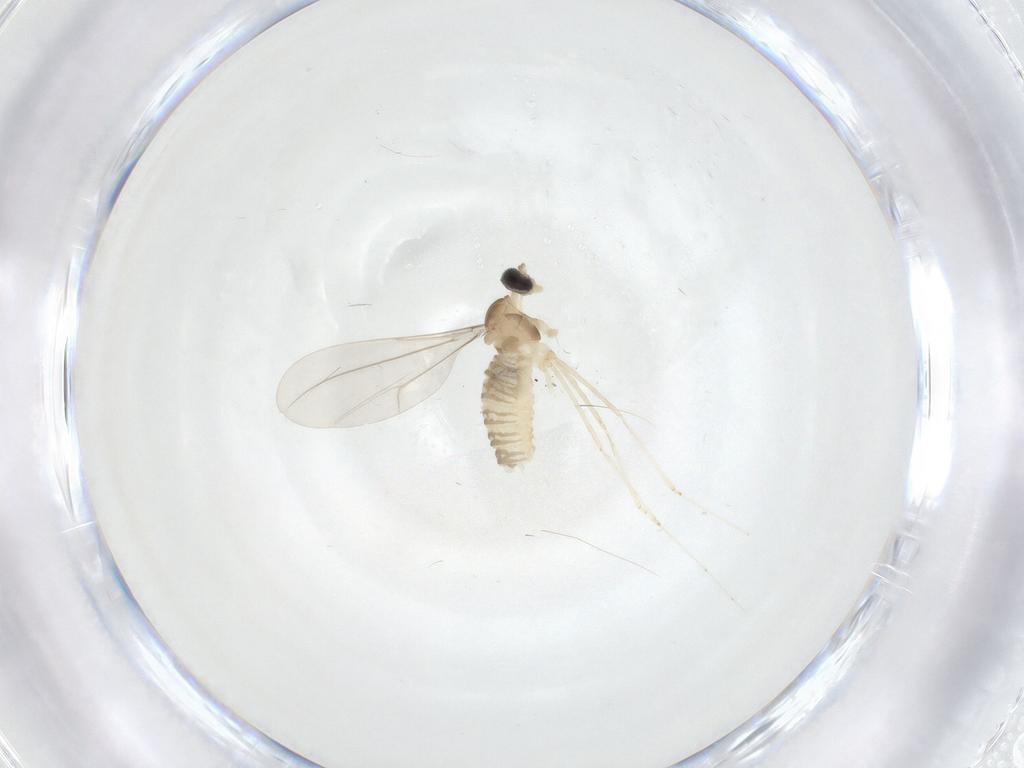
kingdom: Animalia
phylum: Arthropoda
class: Insecta
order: Diptera
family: Cecidomyiidae
